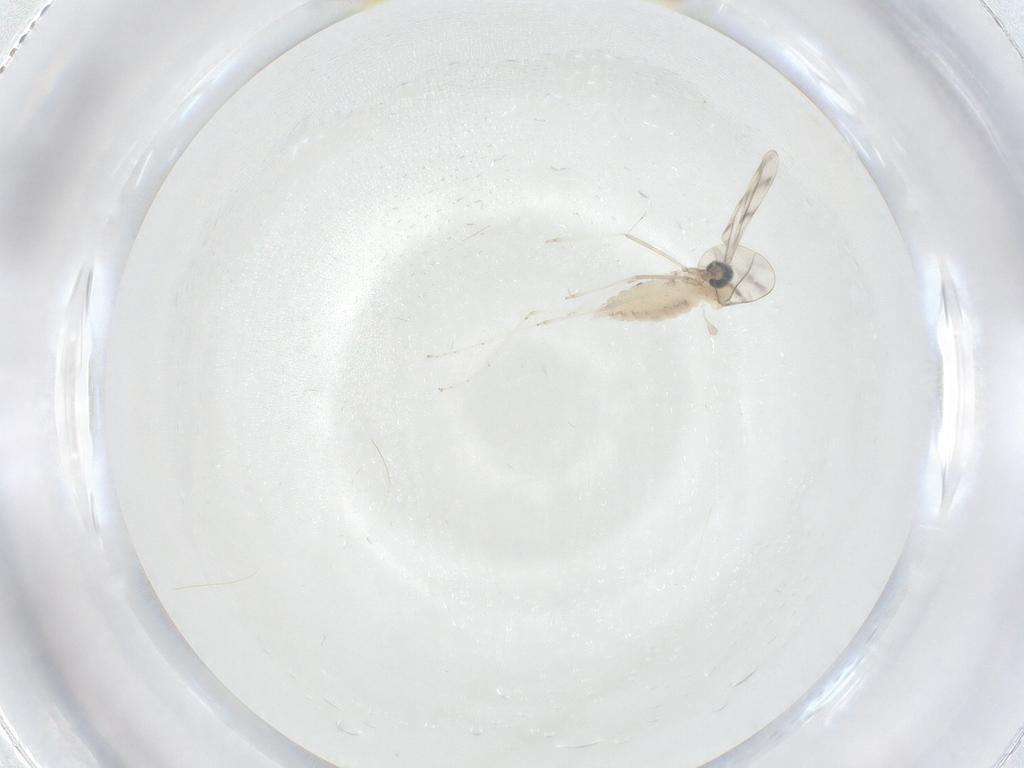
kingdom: Animalia
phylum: Arthropoda
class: Insecta
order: Diptera
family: Cecidomyiidae
